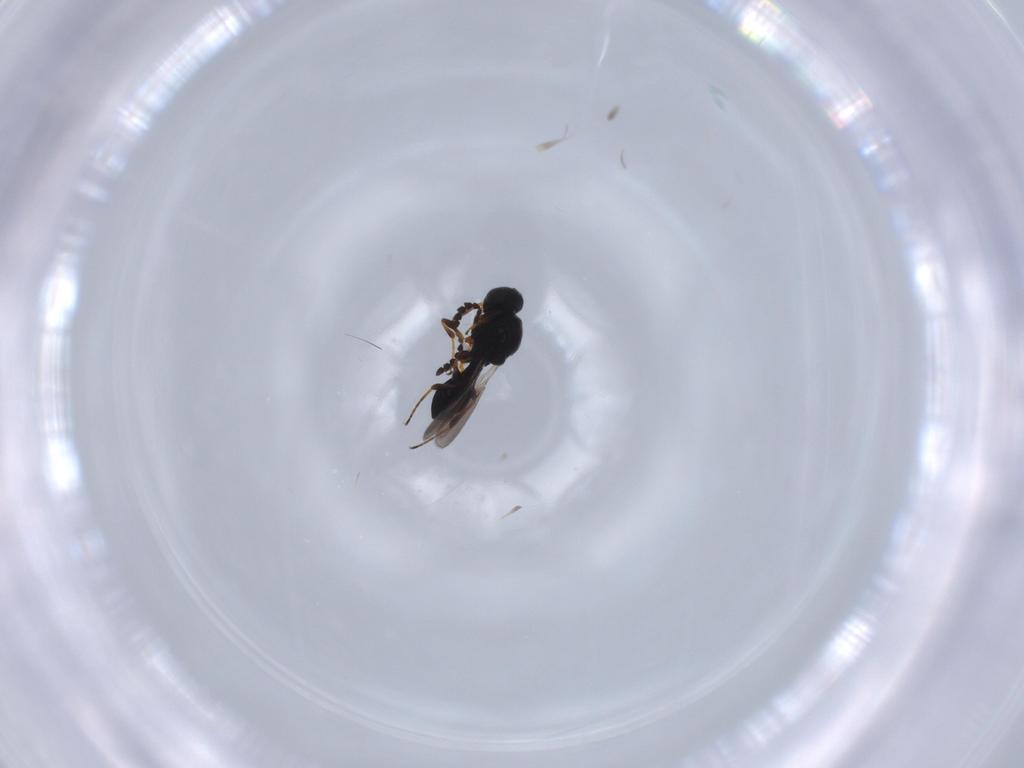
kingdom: Animalia
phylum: Arthropoda
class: Insecta
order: Hymenoptera
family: Platygastridae
